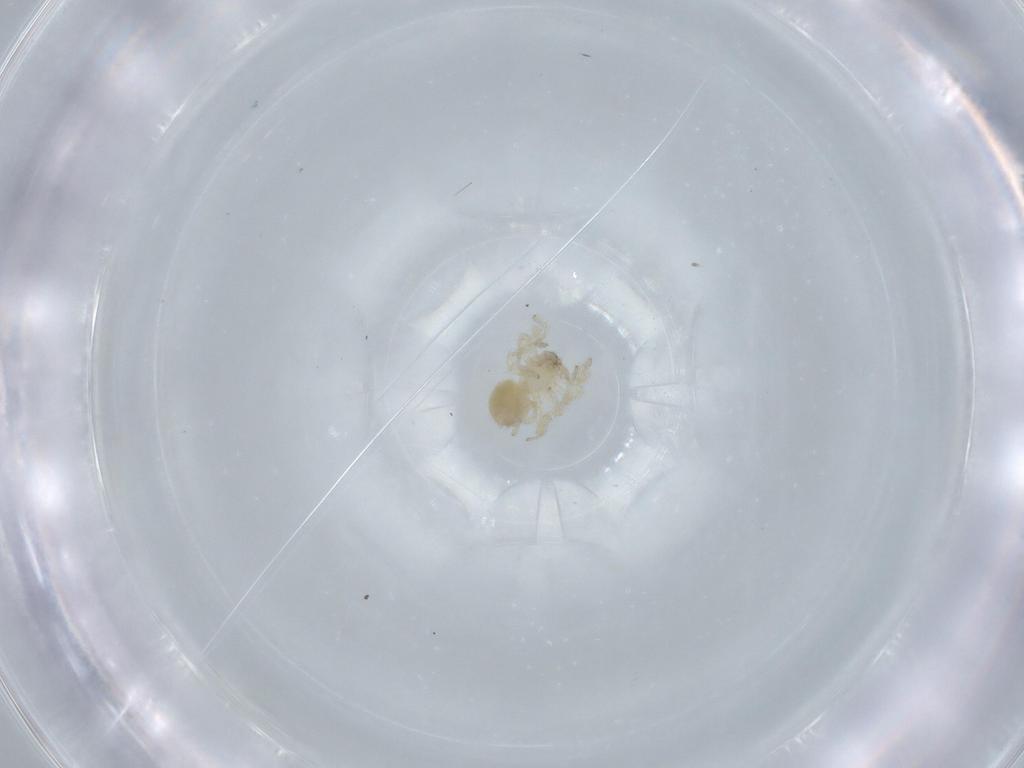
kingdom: Animalia
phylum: Arthropoda
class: Arachnida
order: Araneae
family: Oonopidae
